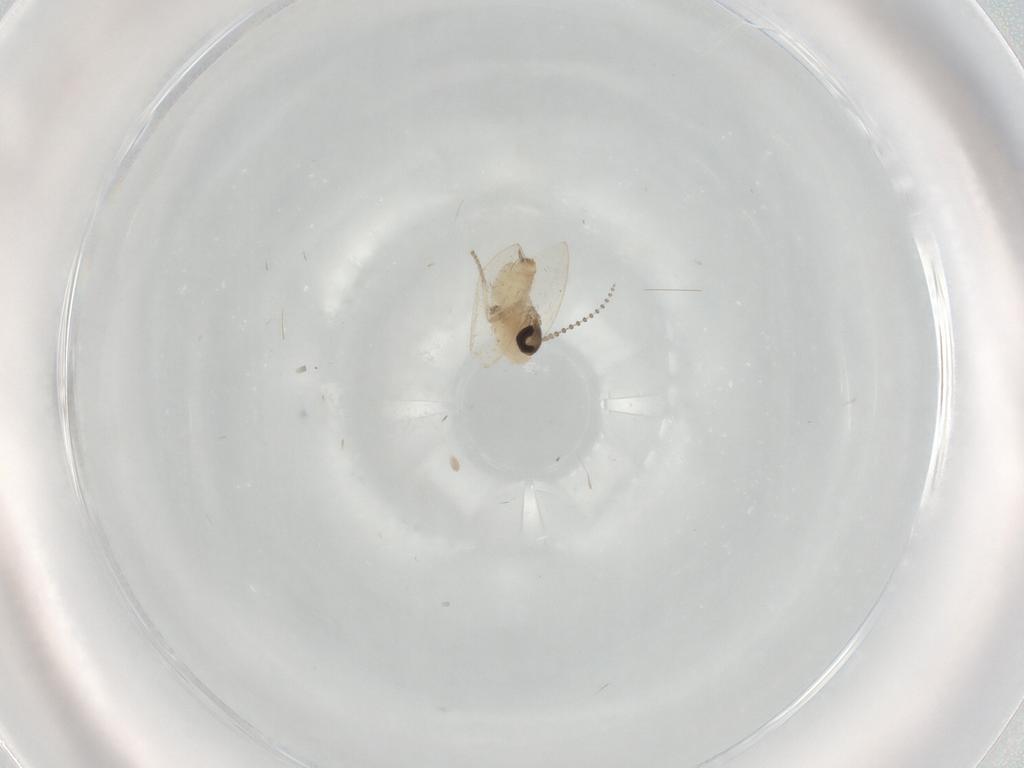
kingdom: Animalia
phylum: Arthropoda
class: Insecta
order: Diptera
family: Psychodidae
